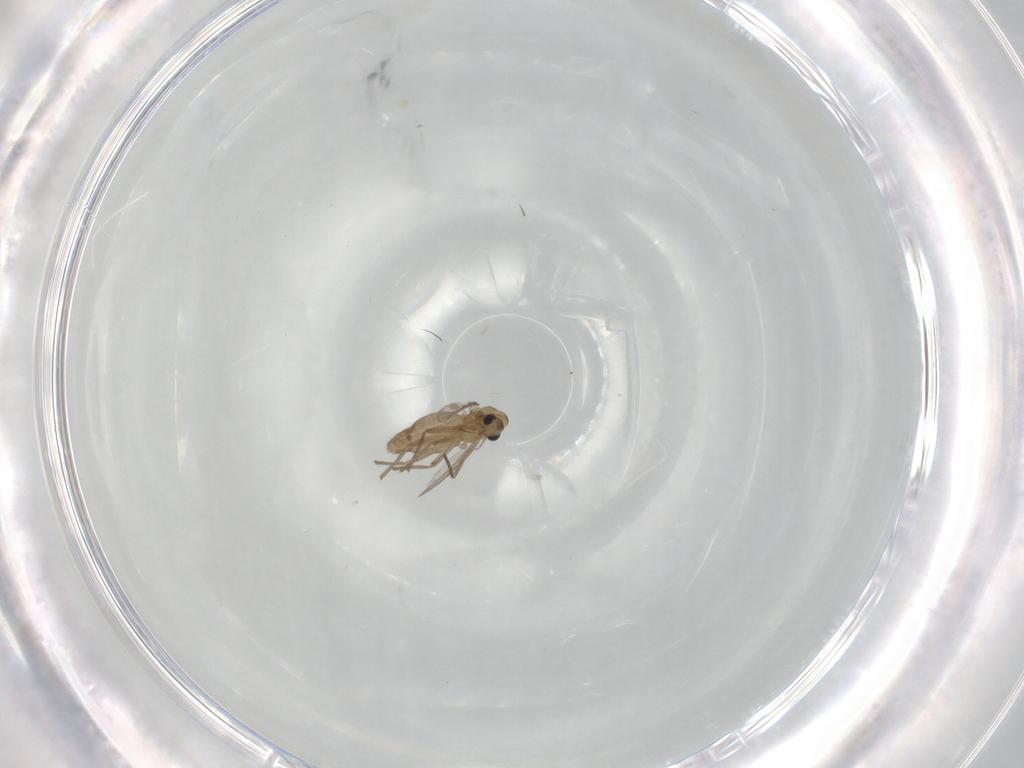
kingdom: Animalia
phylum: Arthropoda
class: Insecta
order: Diptera
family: Chironomidae
